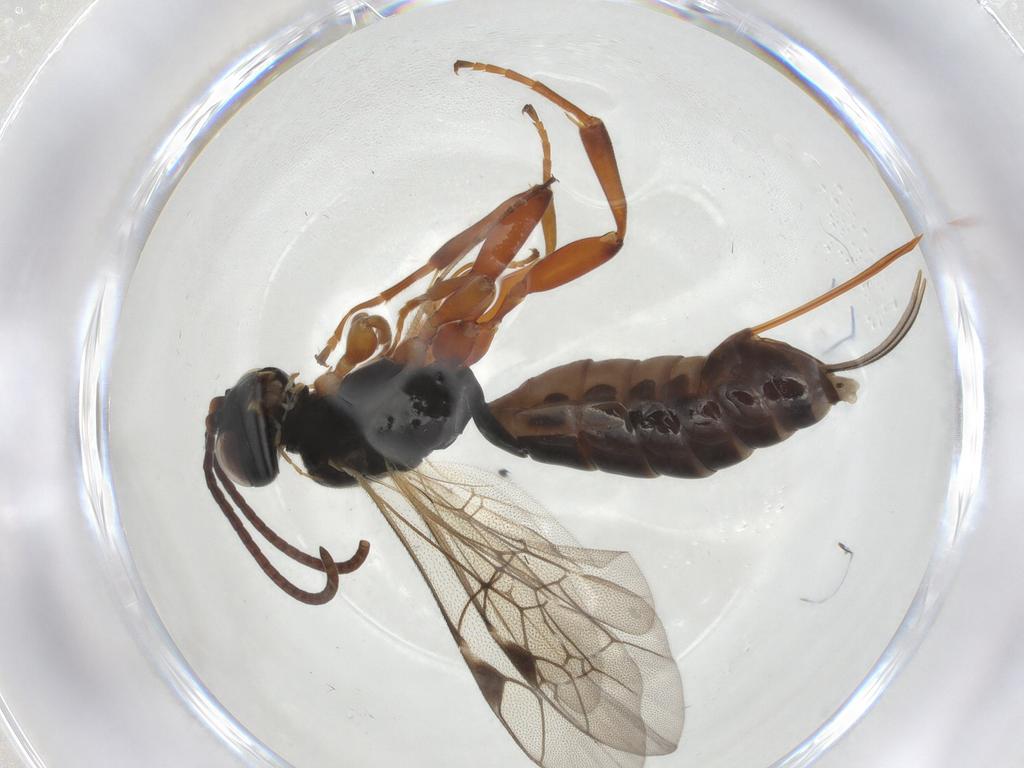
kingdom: Animalia
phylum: Arthropoda
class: Insecta
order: Hymenoptera
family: Ichneumonidae
